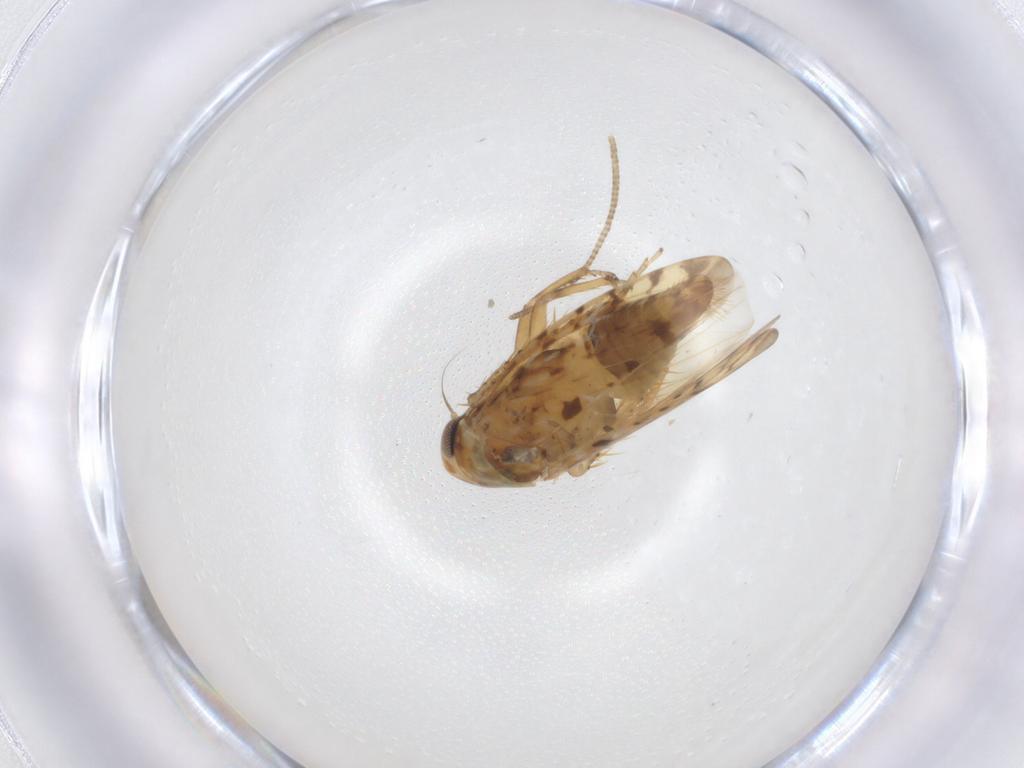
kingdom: Animalia
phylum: Arthropoda
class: Insecta
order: Hemiptera
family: Cicadellidae
